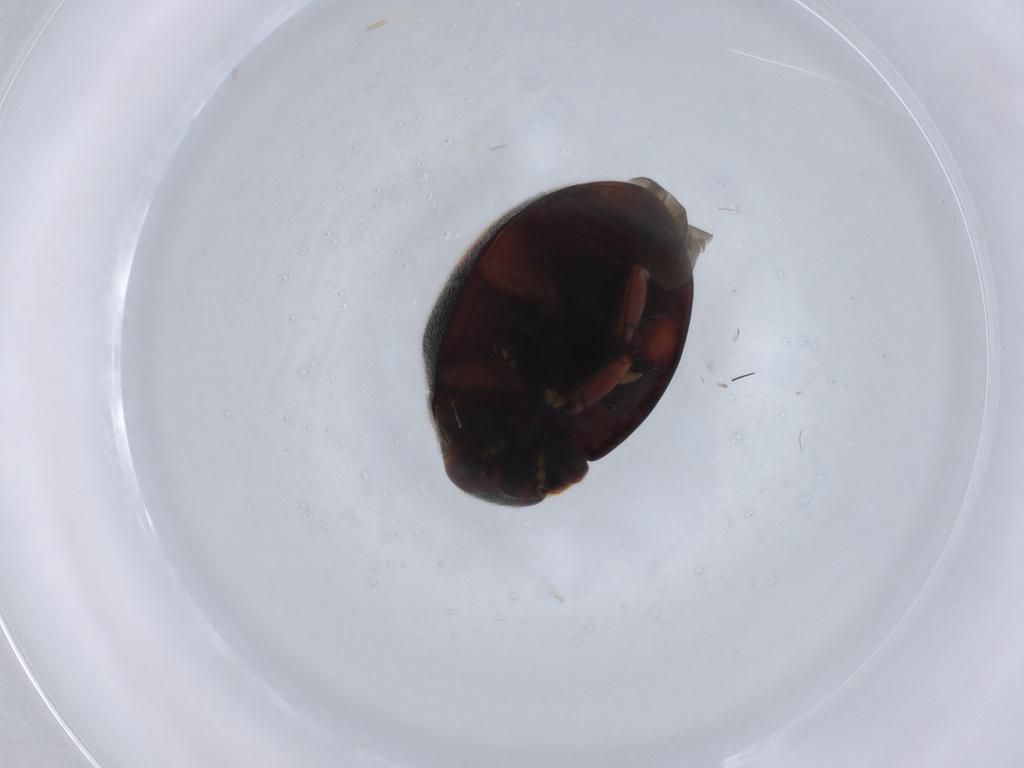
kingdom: Animalia
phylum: Arthropoda
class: Insecta
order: Coleoptera
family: Coccinellidae
